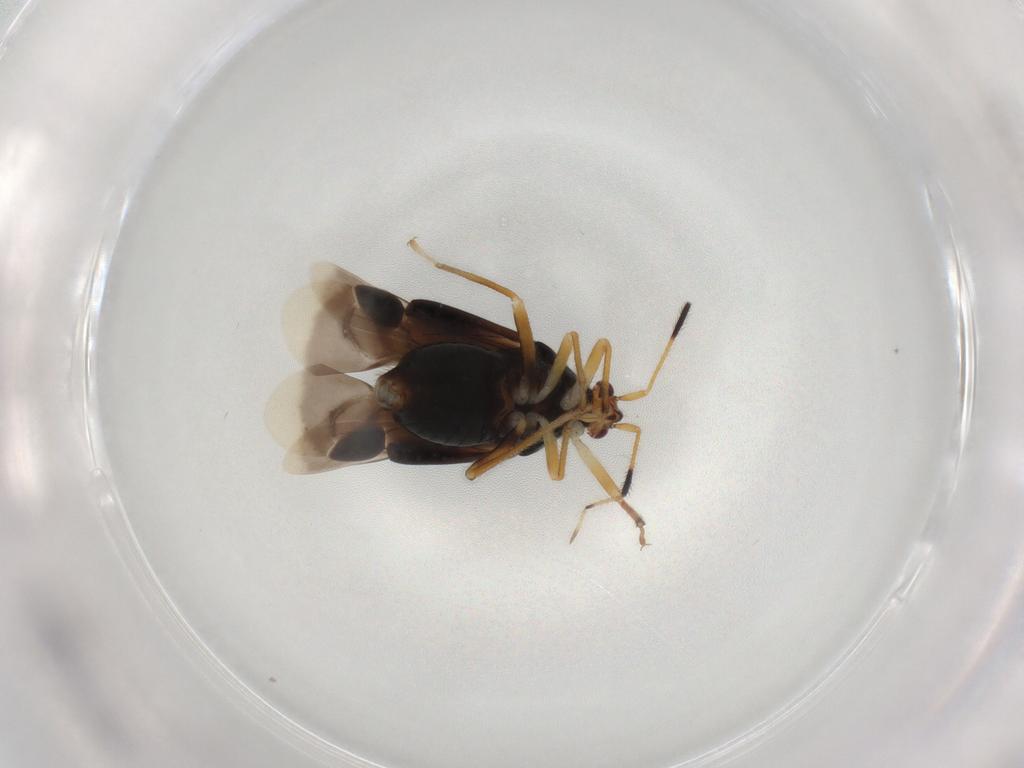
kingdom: Animalia
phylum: Arthropoda
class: Insecta
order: Hemiptera
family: Miridae
